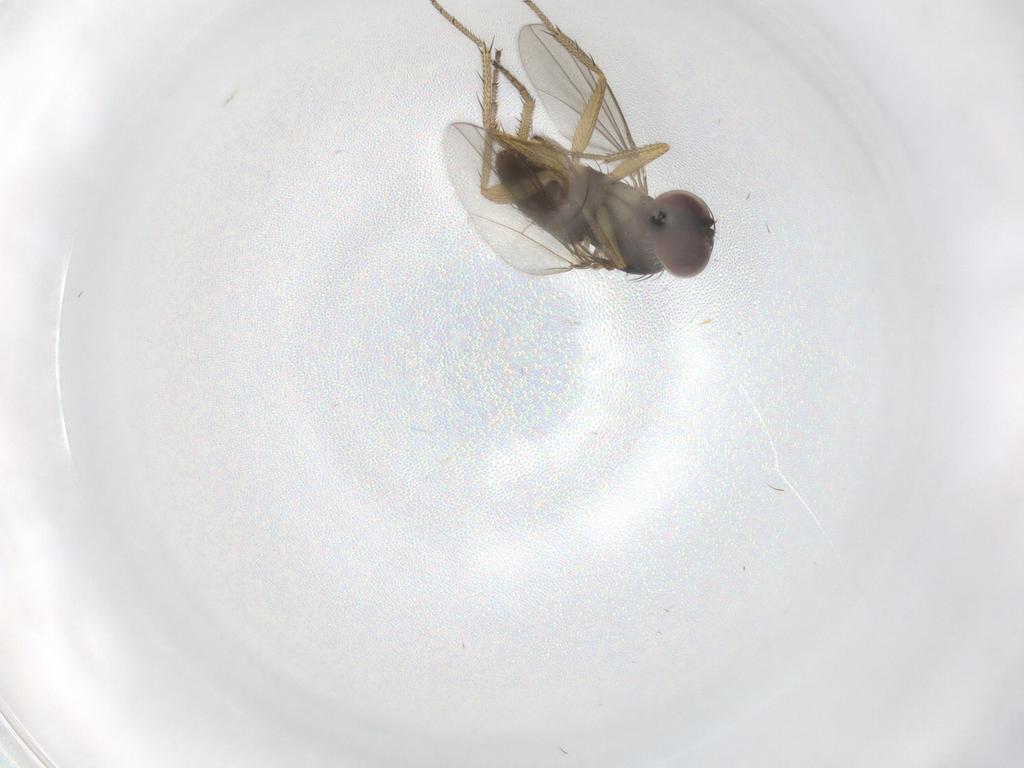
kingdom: Animalia
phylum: Arthropoda
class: Insecta
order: Diptera
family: Dolichopodidae
